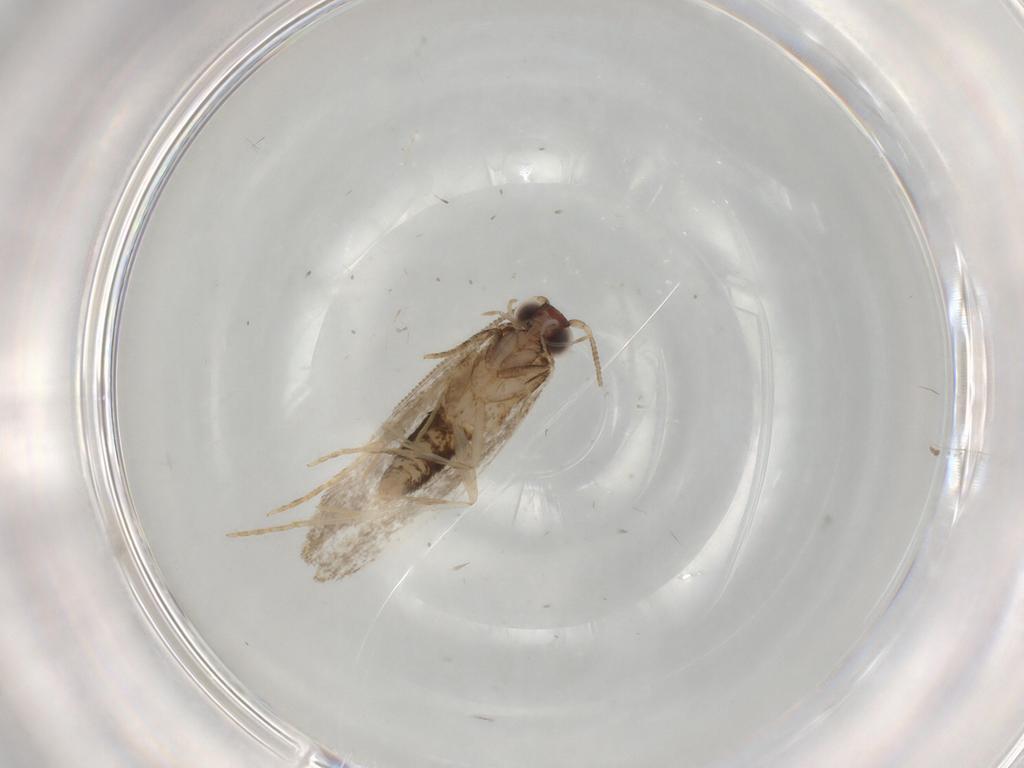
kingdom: Animalia
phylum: Arthropoda
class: Insecta
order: Lepidoptera
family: Tineidae
